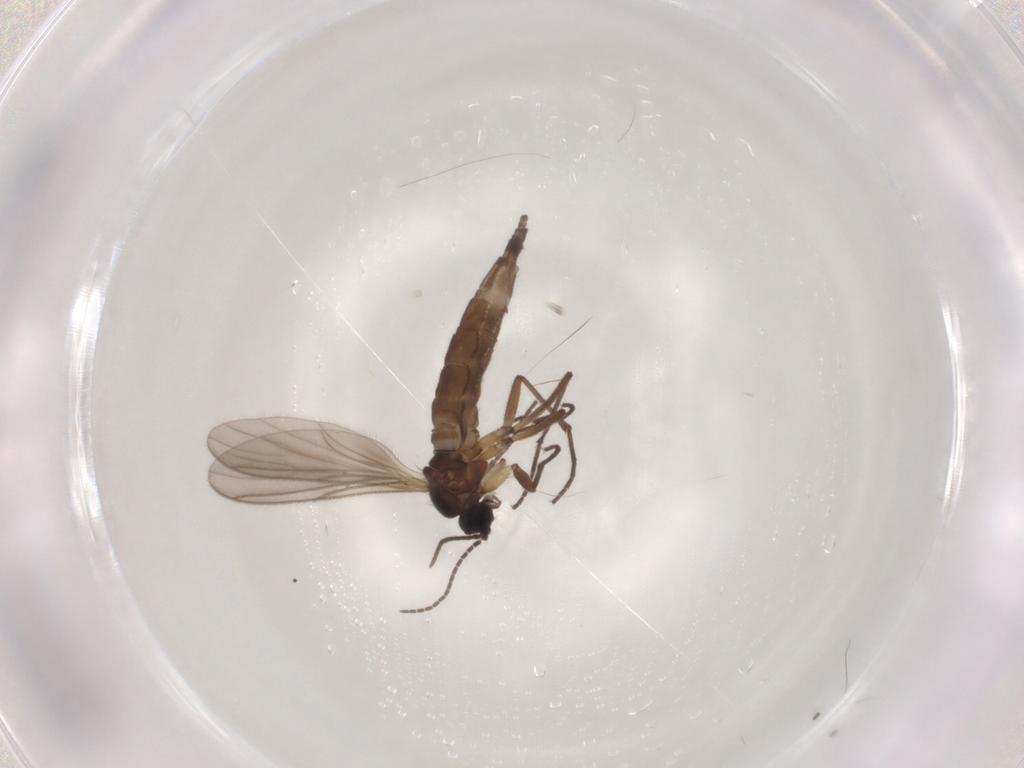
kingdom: Animalia
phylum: Arthropoda
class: Insecta
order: Diptera
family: Sciaridae
